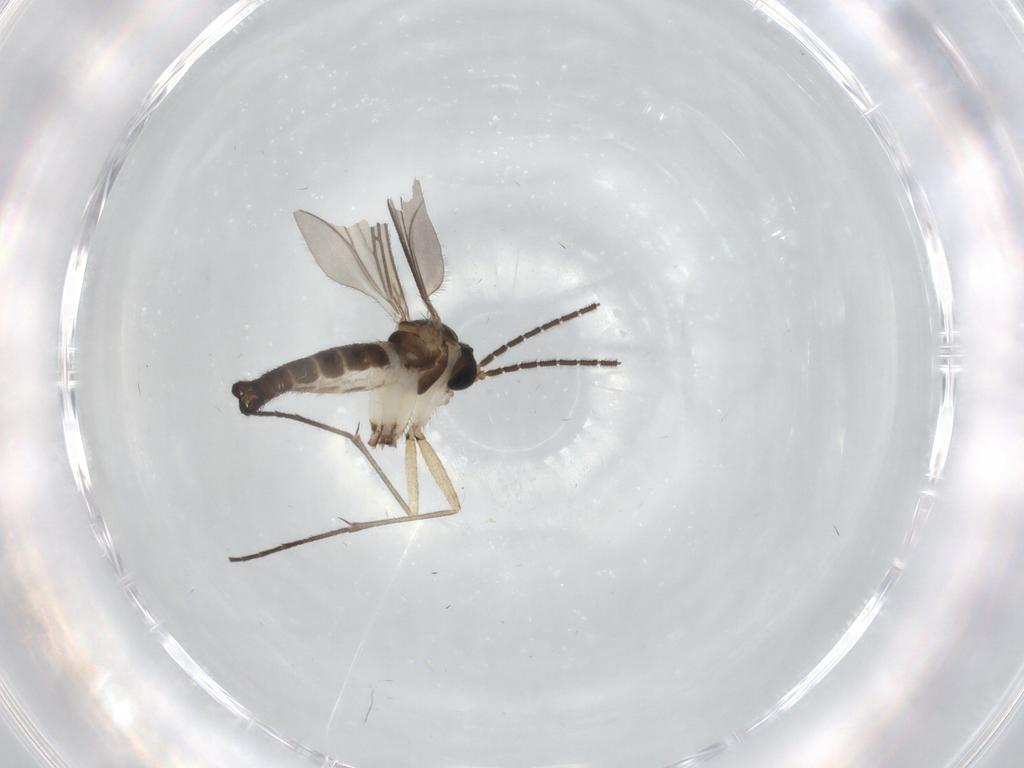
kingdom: Animalia
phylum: Arthropoda
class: Insecta
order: Diptera
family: Sciaridae
